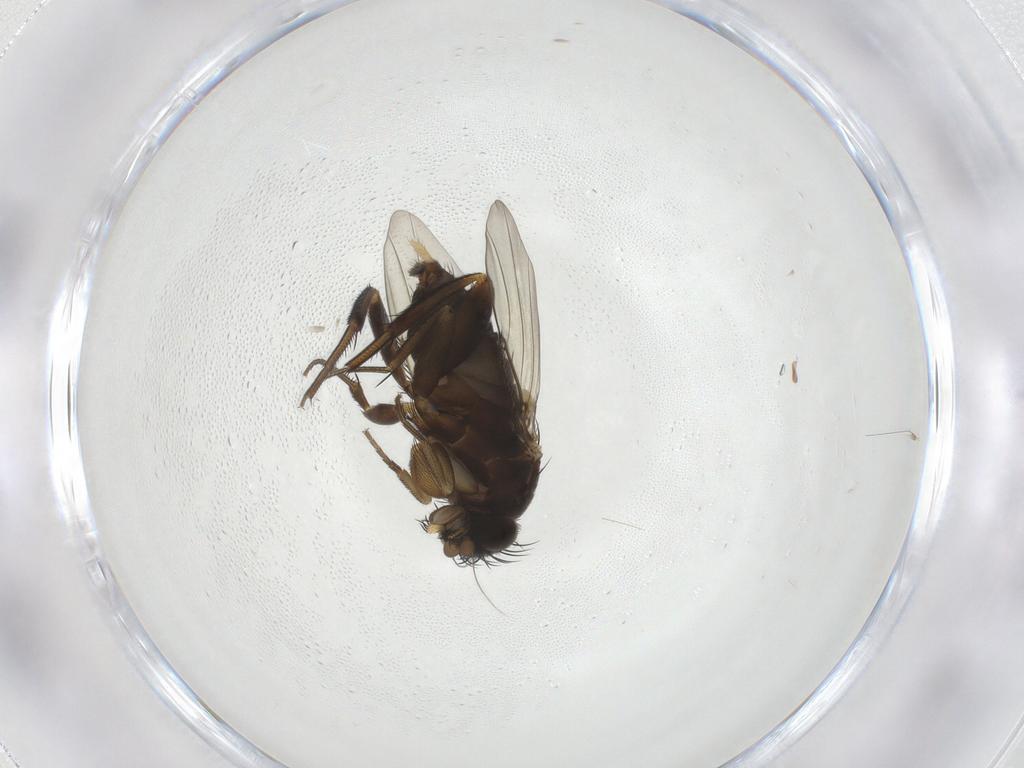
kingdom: Animalia
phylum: Arthropoda
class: Insecta
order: Diptera
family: Phoridae
